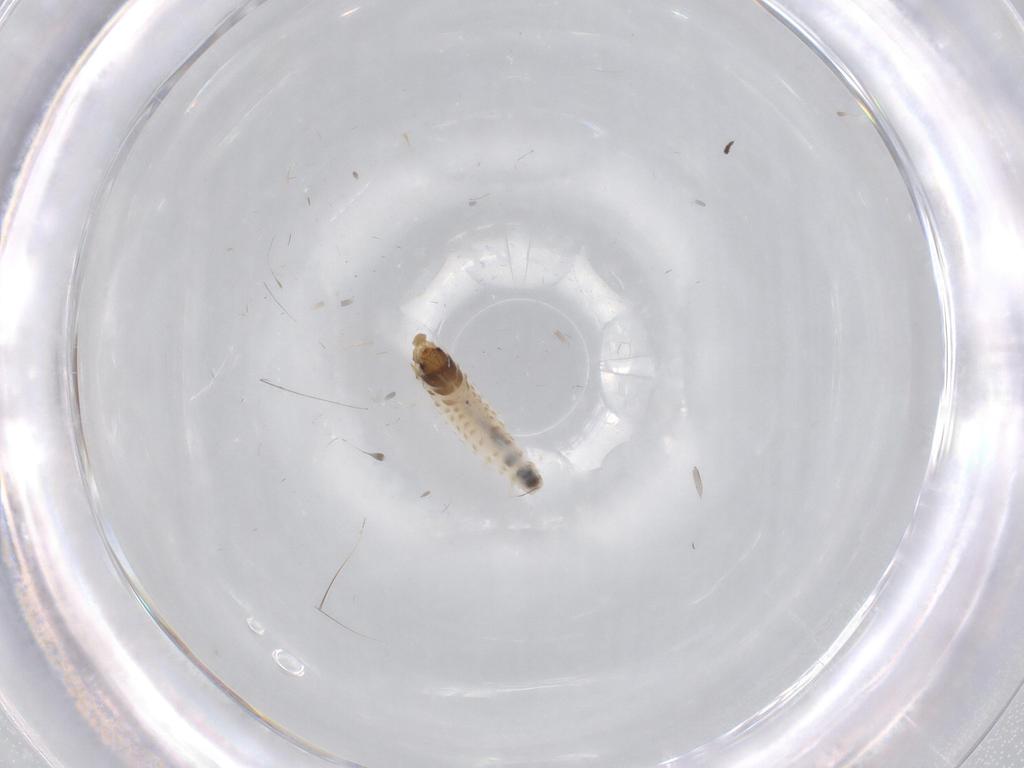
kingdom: Animalia
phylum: Arthropoda
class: Insecta
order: Lepidoptera
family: Psychidae
